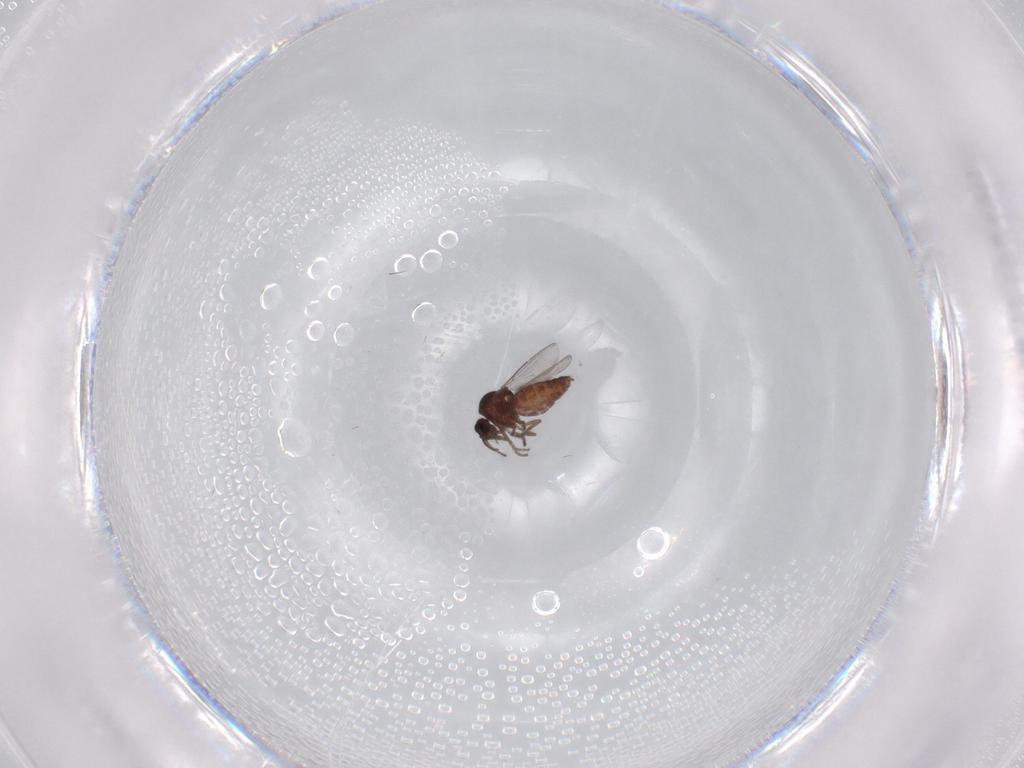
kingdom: Animalia
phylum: Arthropoda
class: Insecta
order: Diptera
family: Ceratopogonidae
